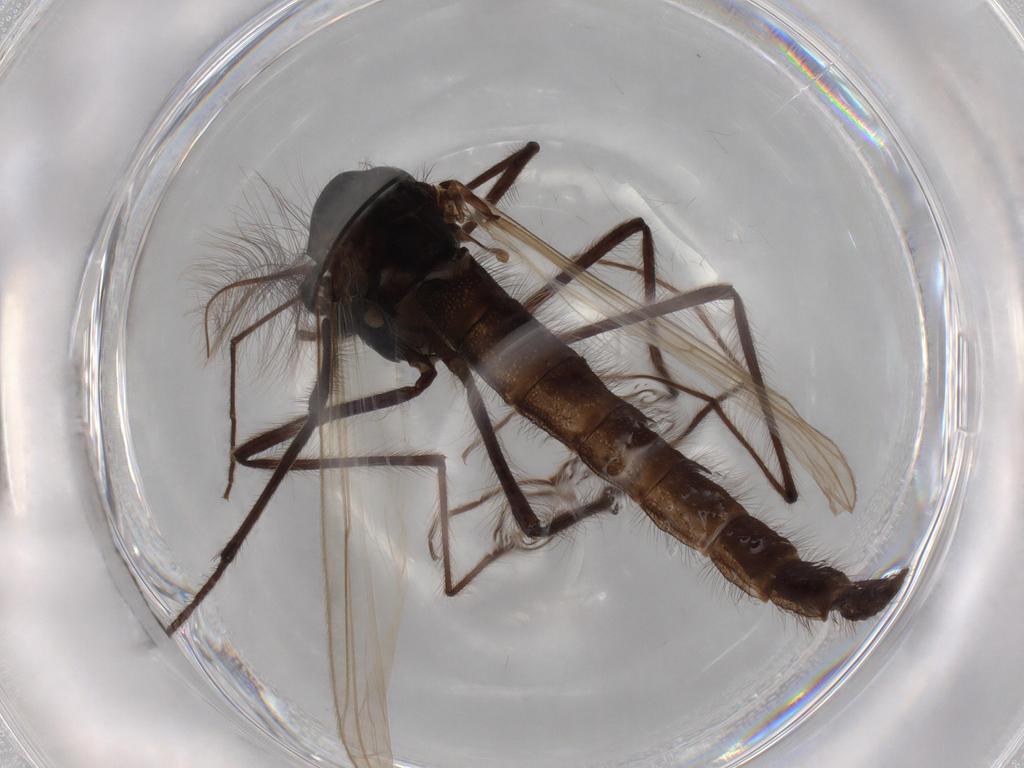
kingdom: Animalia
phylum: Arthropoda
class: Insecta
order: Diptera
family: Chironomidae
